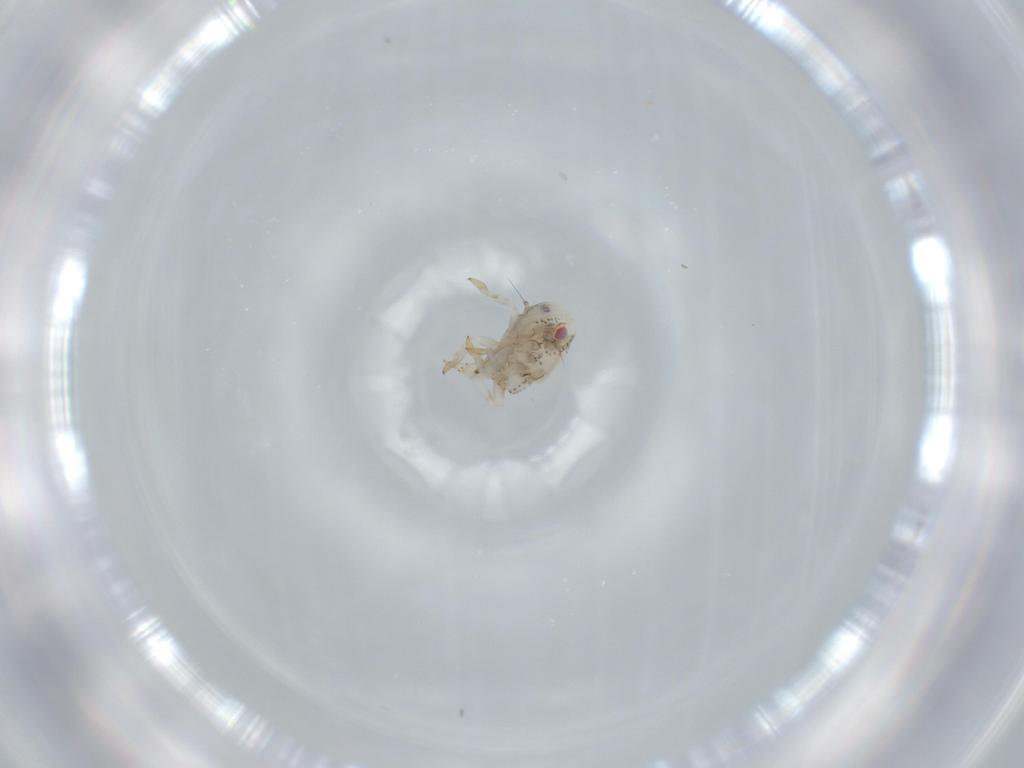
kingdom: Animalia
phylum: Arthropoda
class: Insecta
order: Hemiptera
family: Acanaloniidae
